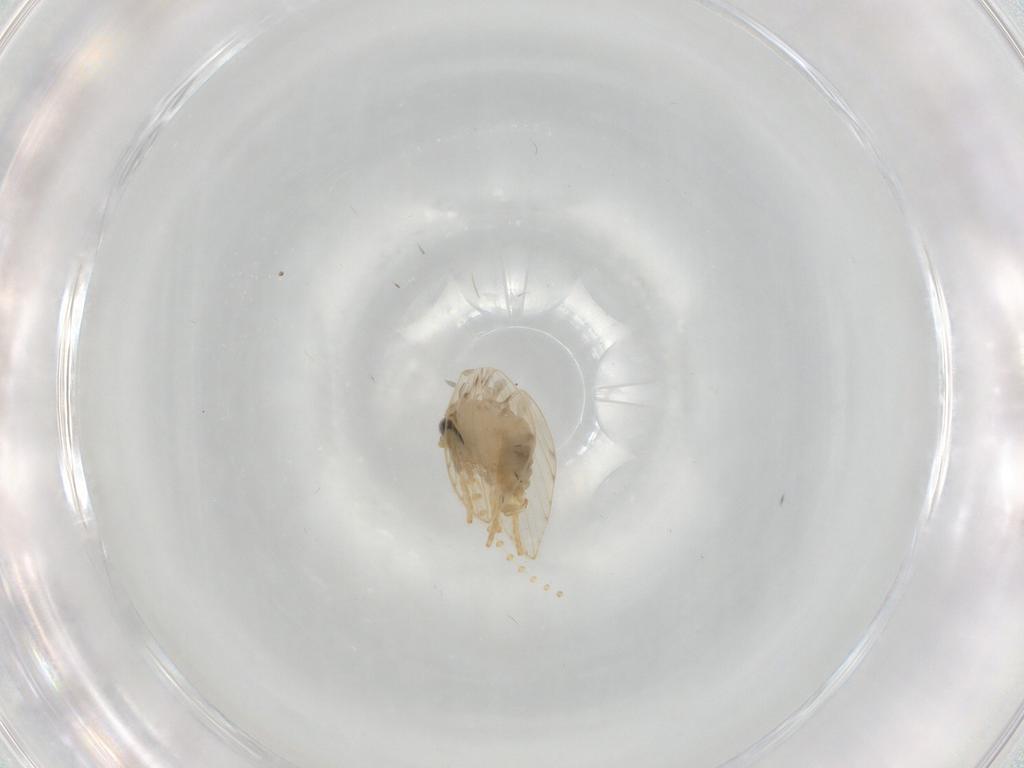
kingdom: Animalia
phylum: Arthropoda
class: Insecta
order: Diptera
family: Psychodidae
